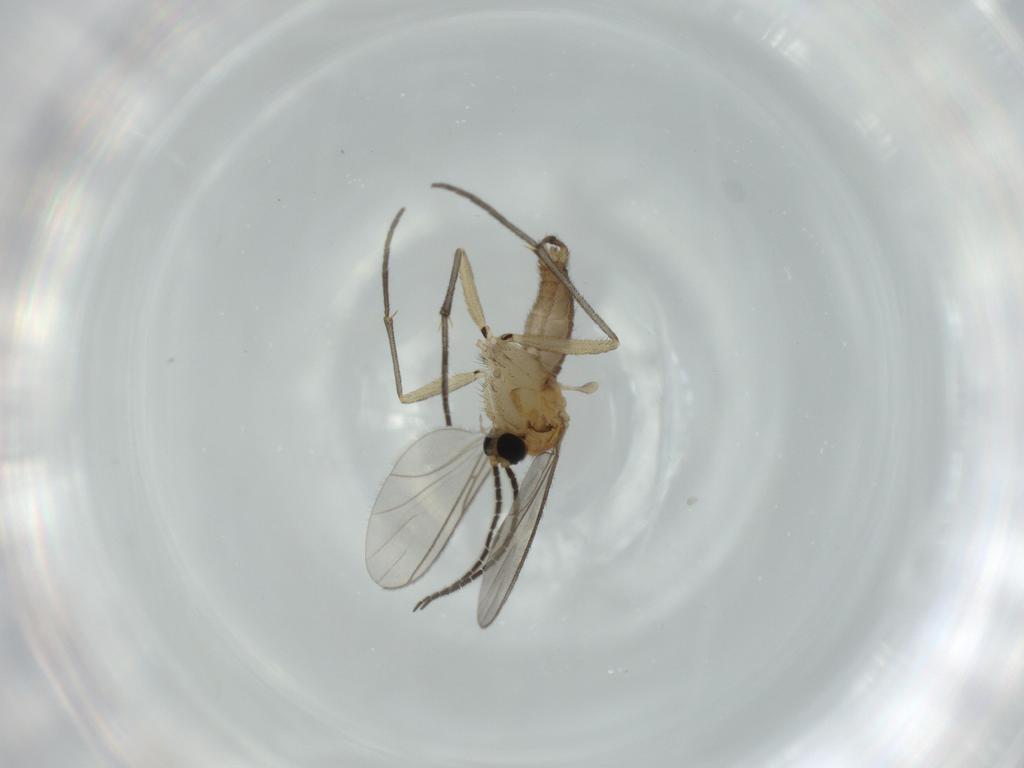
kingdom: Animalia
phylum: Arthropoda
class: Insecta
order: Diptera
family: Sciaridae
